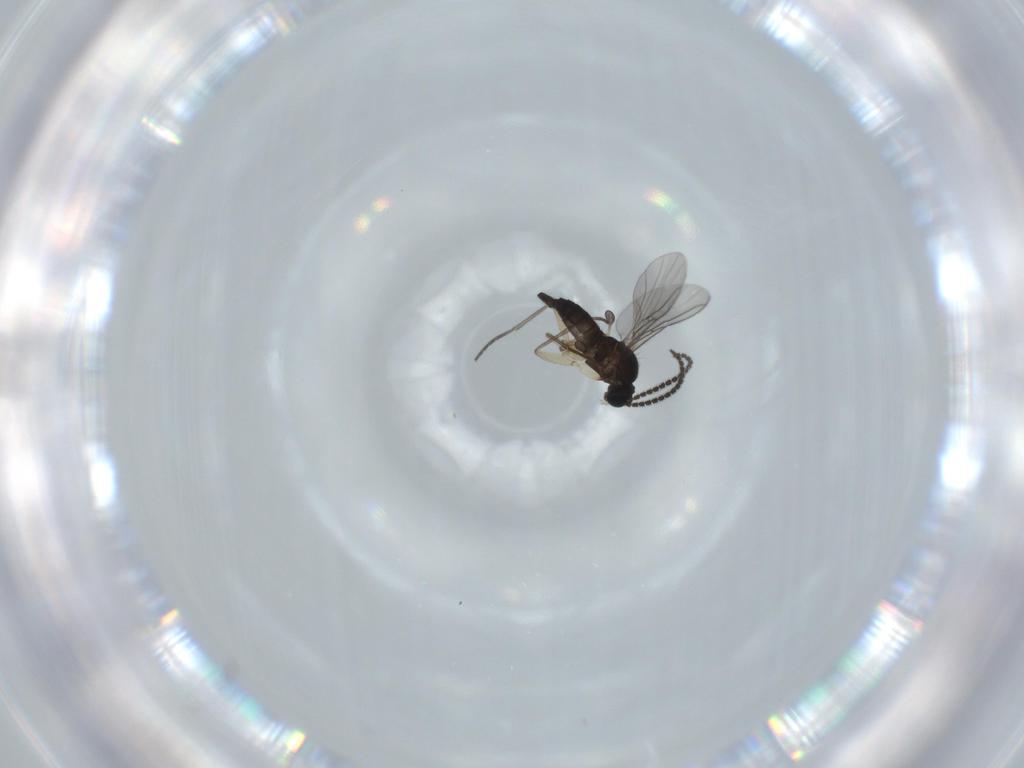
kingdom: Animalia
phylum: Arthropoda
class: Insecta
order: Diptera
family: Sciaridae
